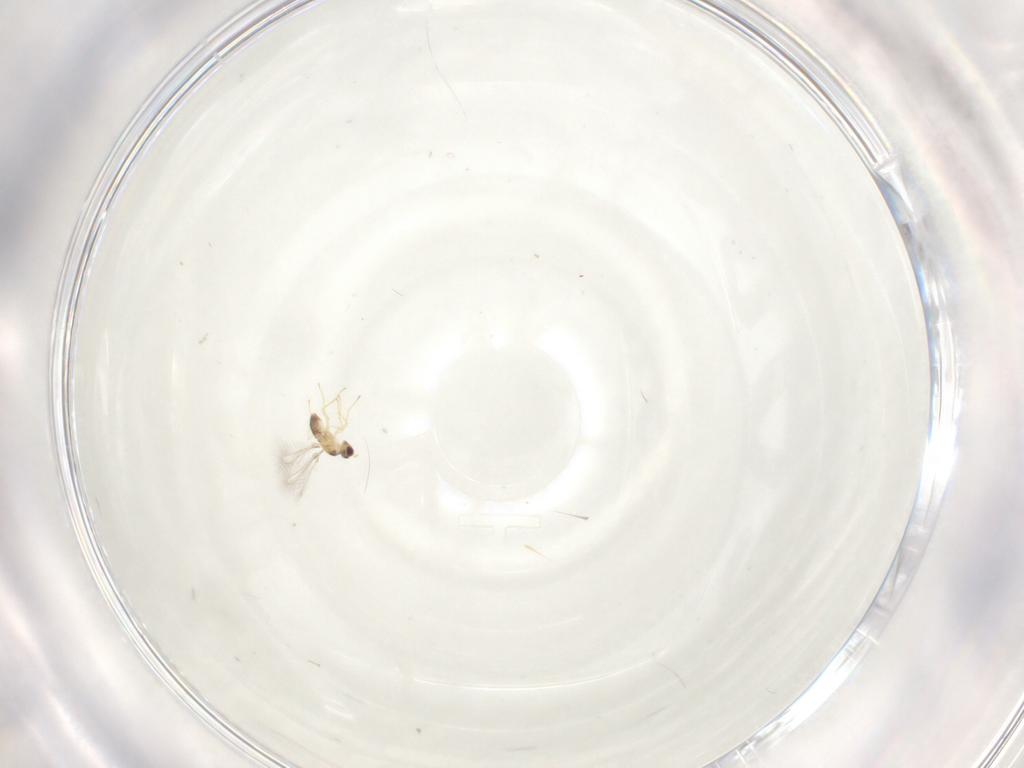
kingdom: Animalia
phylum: Arthropoda
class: Insecta
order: Hymenoptera
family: Mymaridae
